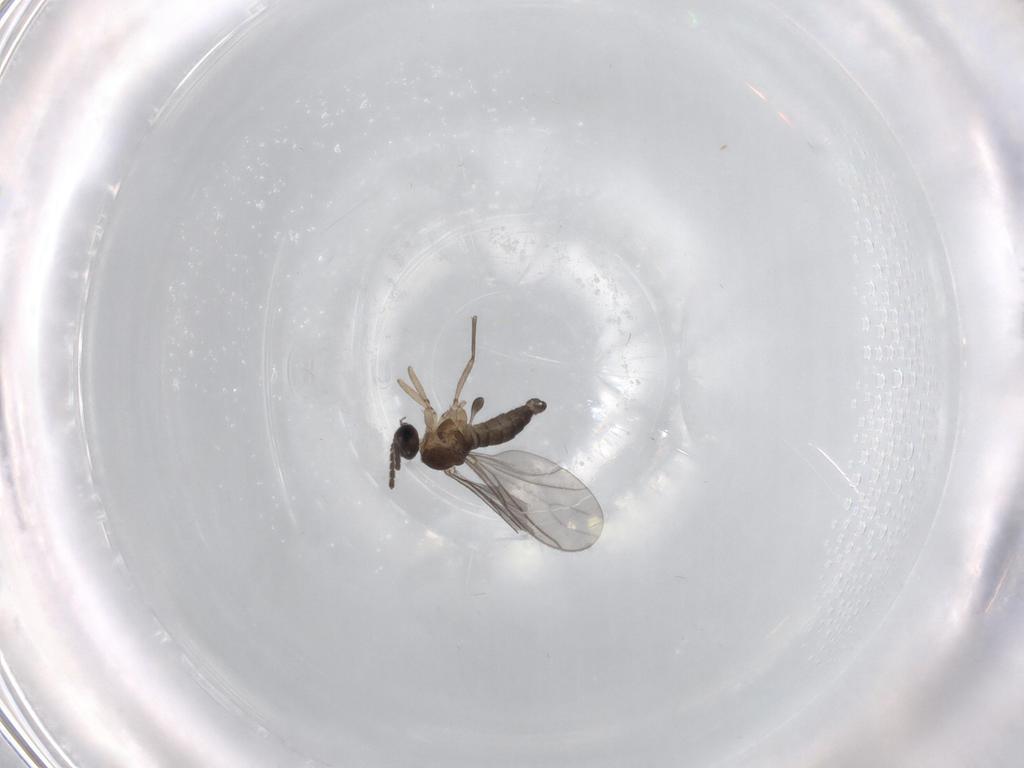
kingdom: Animalia
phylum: Arthropoda
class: Insecta
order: Diptera
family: Sciaridae
